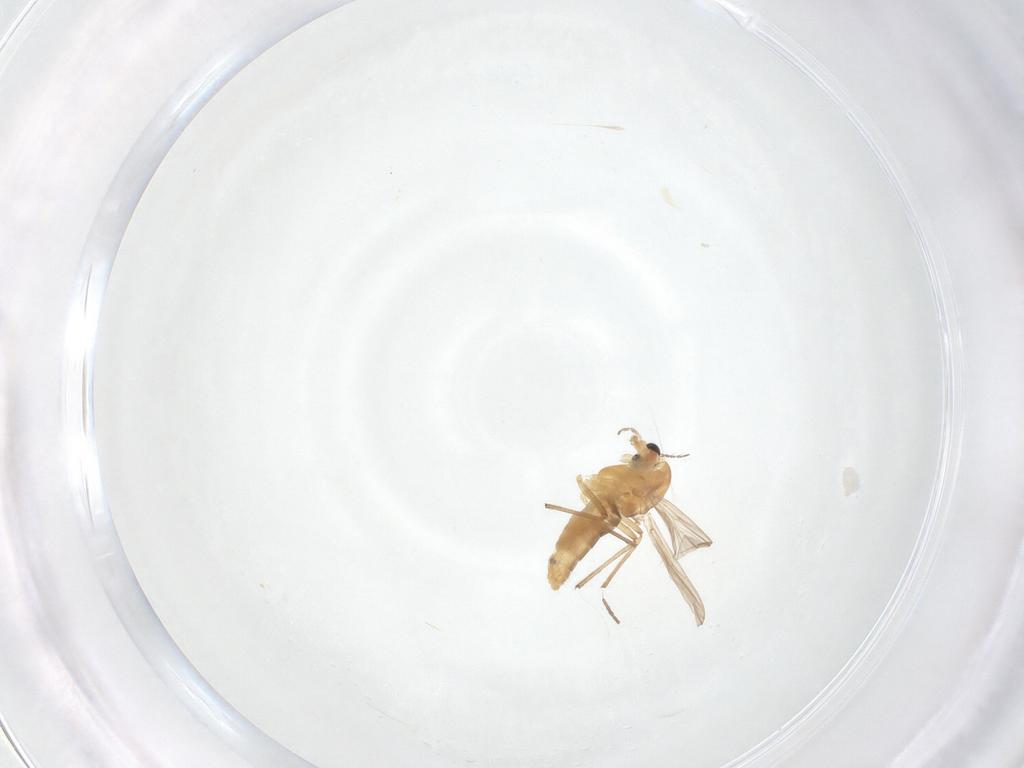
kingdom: Animalia
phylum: Arthropoda
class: Insecta
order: Diptera
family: Chironomidae
